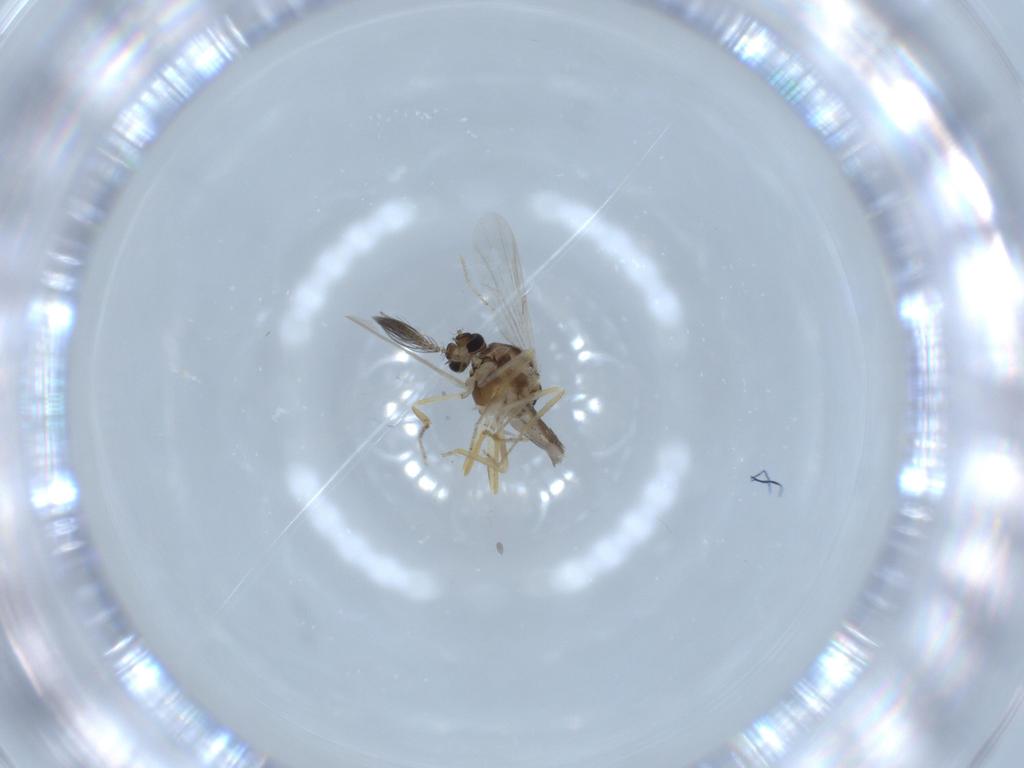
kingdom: Animalia
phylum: Arthropoda
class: Insecta
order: Diptera
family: Ceratopogonidae
